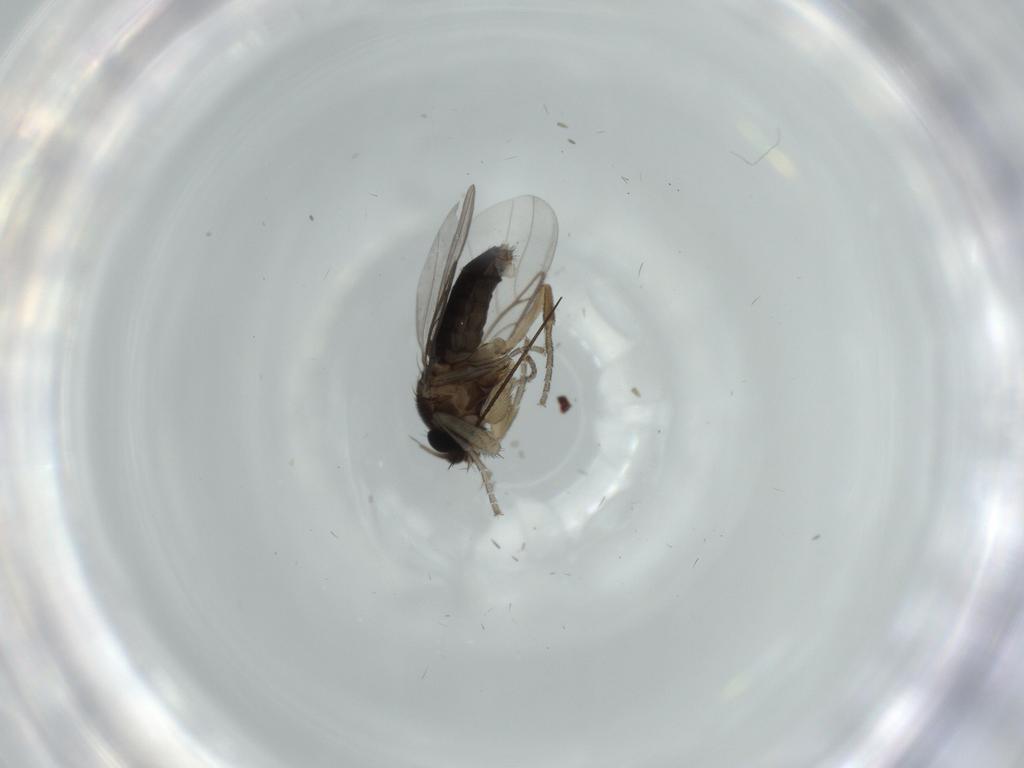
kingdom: Animalia
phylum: Arthropoda
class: Insecta
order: Diptera
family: Phoridae
